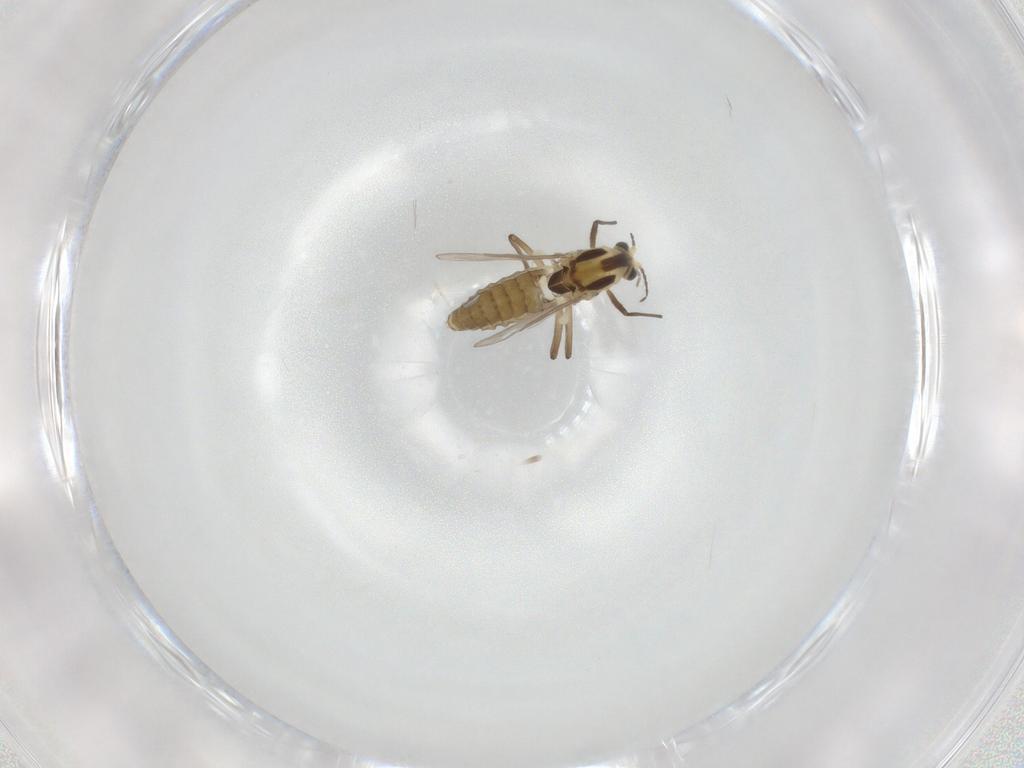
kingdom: Animalia
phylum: Arthropoda
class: Insecta
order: Diptera
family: Chironomidae
